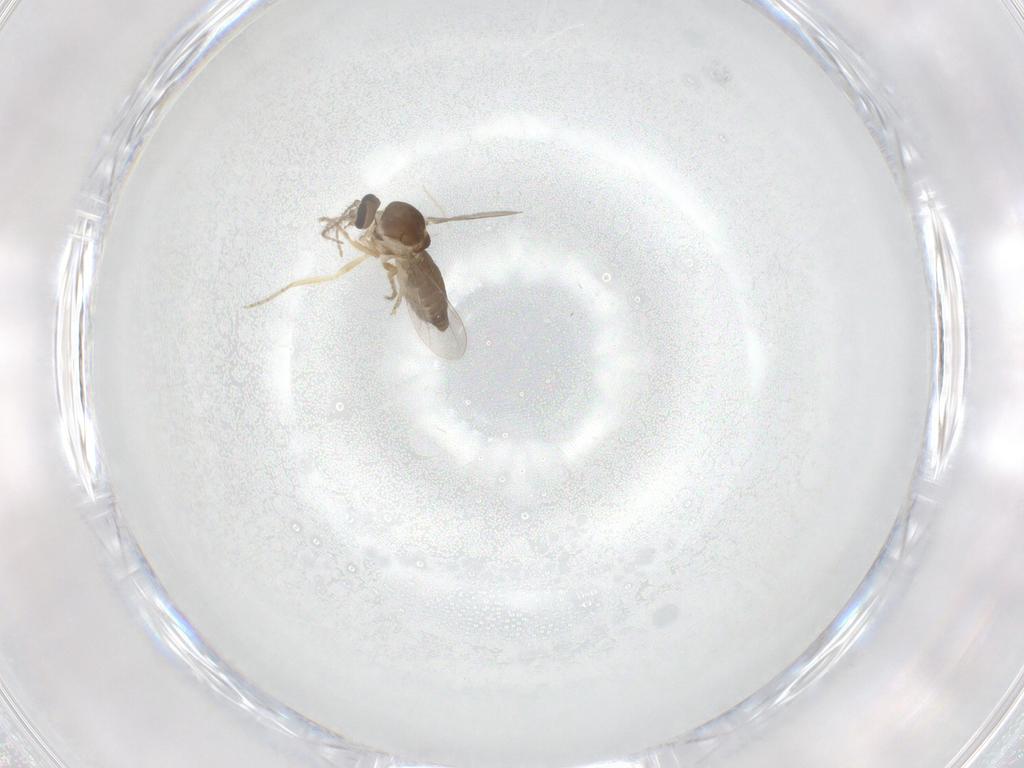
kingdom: Animalia
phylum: Arthropoda
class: Insecta
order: Diptera
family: Ceratopogonidae
